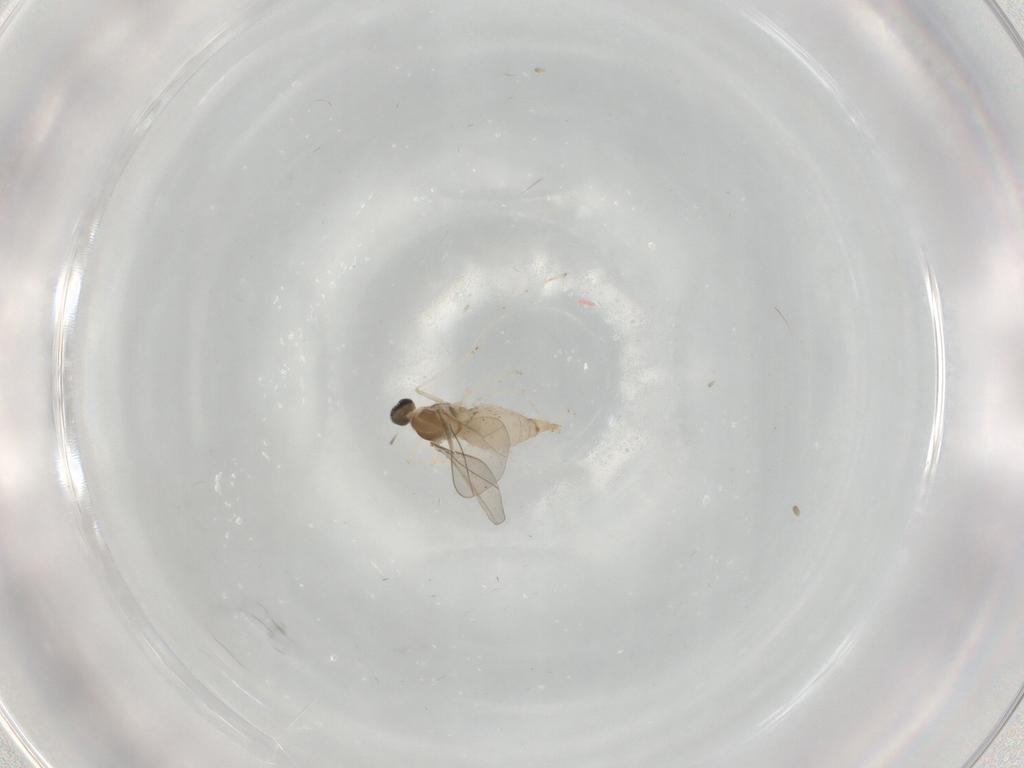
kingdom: Animalia
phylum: Arthropoda
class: Insecta
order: Diptera
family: Cecidomyiidae
